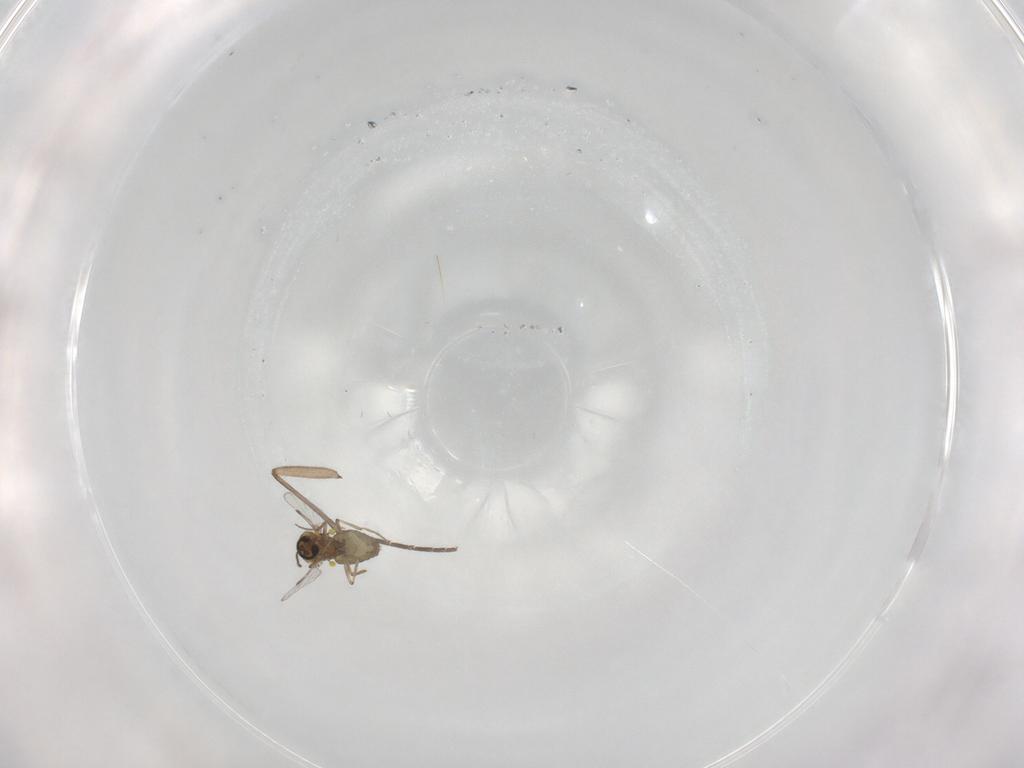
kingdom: Animalia
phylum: Arthropoda
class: Insecta
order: Diptera
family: Ceratopogonidae
